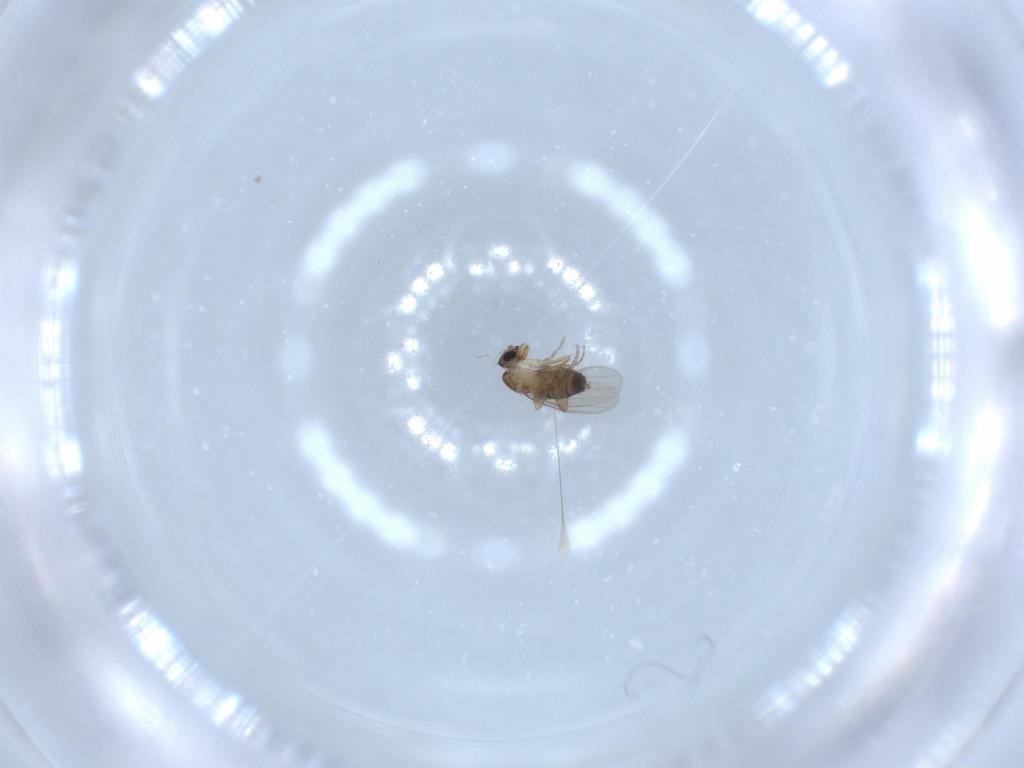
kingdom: Animalia
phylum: Arthropoda
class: Insecta
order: Diptera
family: Phoridae
